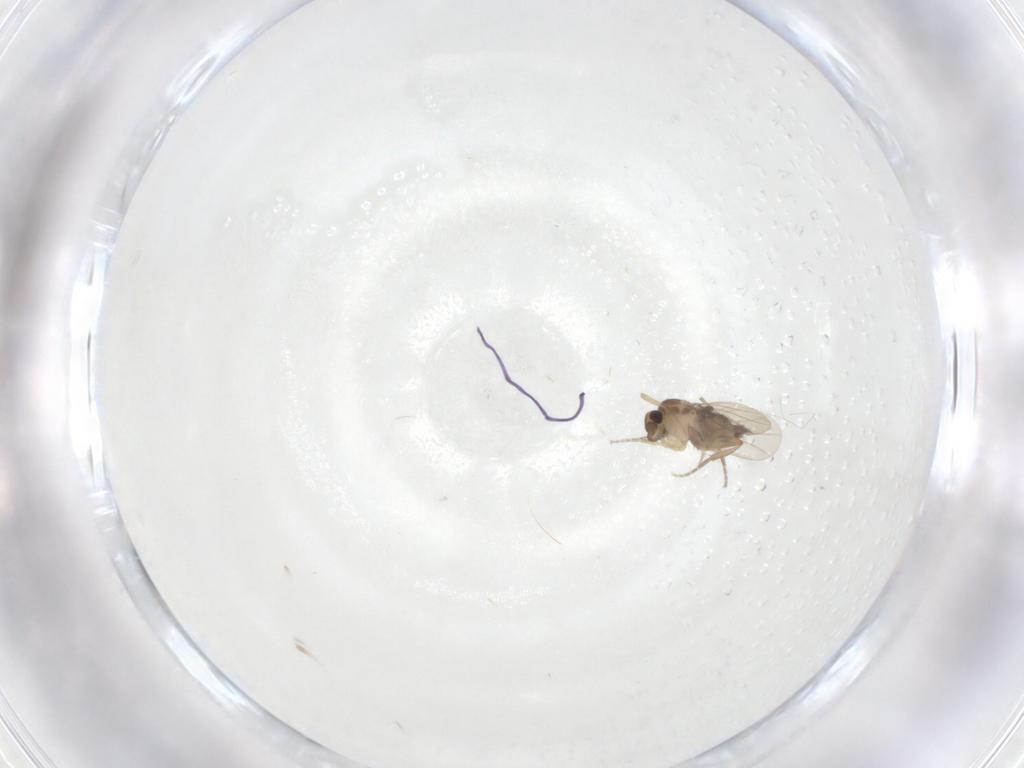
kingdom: Animalia
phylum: Arthropoda
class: Insecta
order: Diptera
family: Phoridae
